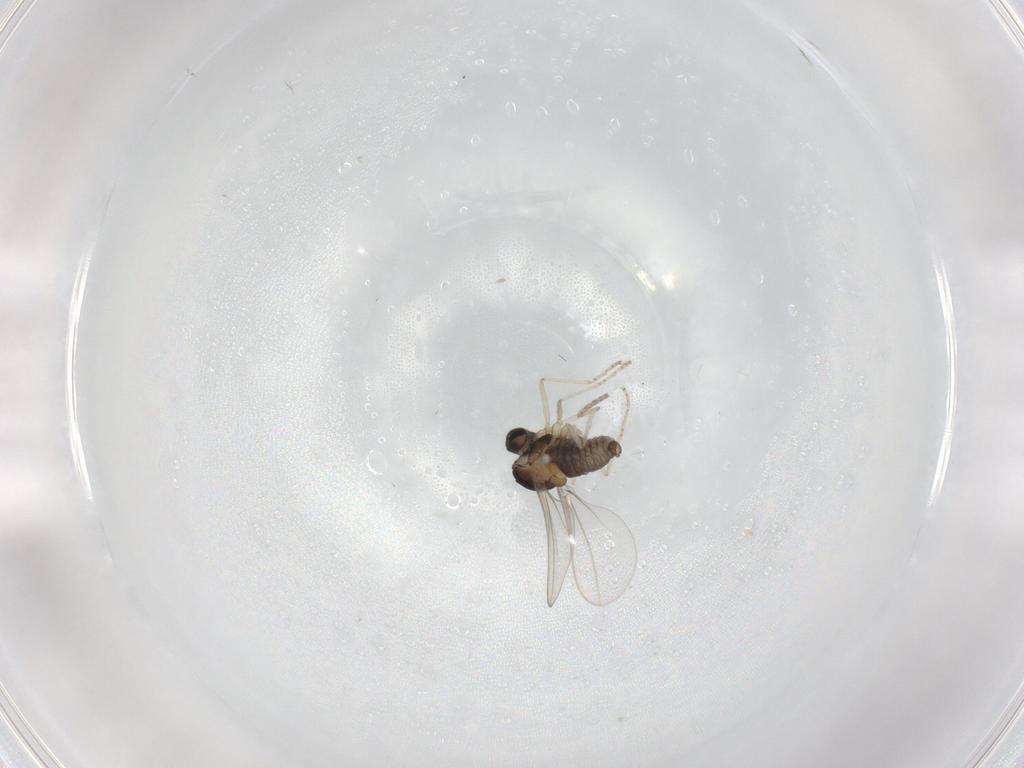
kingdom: Animalia
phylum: Arthropoda
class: Insecta
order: Diptera
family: Cecidomyiidae
